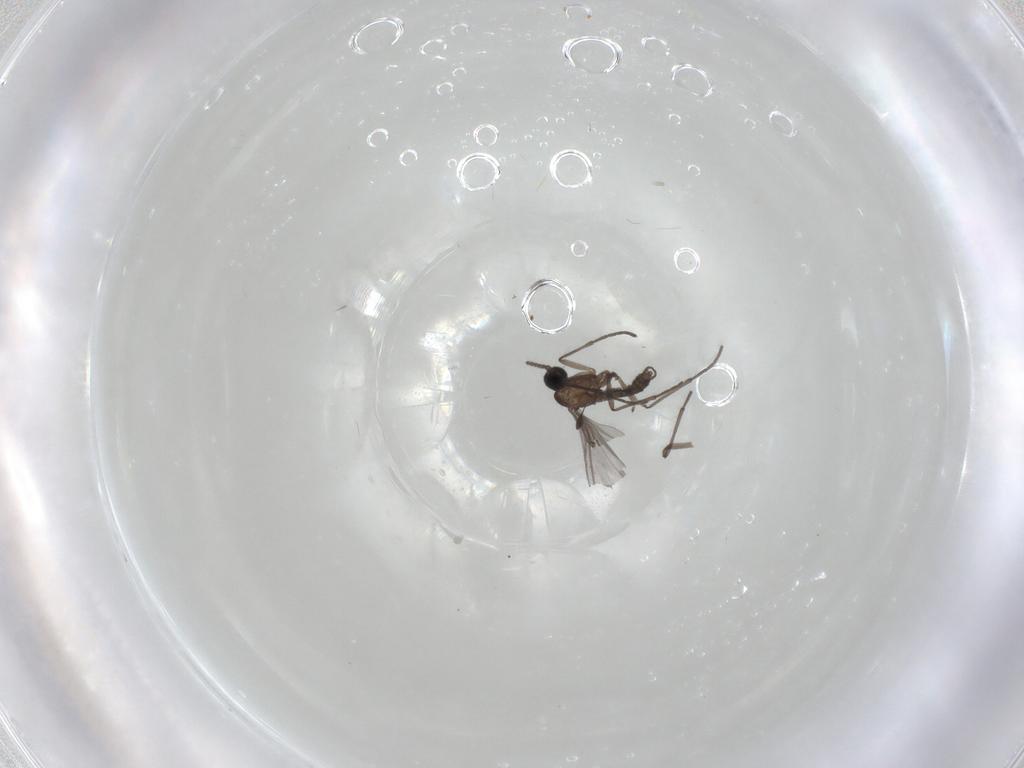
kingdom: Animalia
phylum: Arthropoda
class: Insecta
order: Diptera
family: Sciaridae
